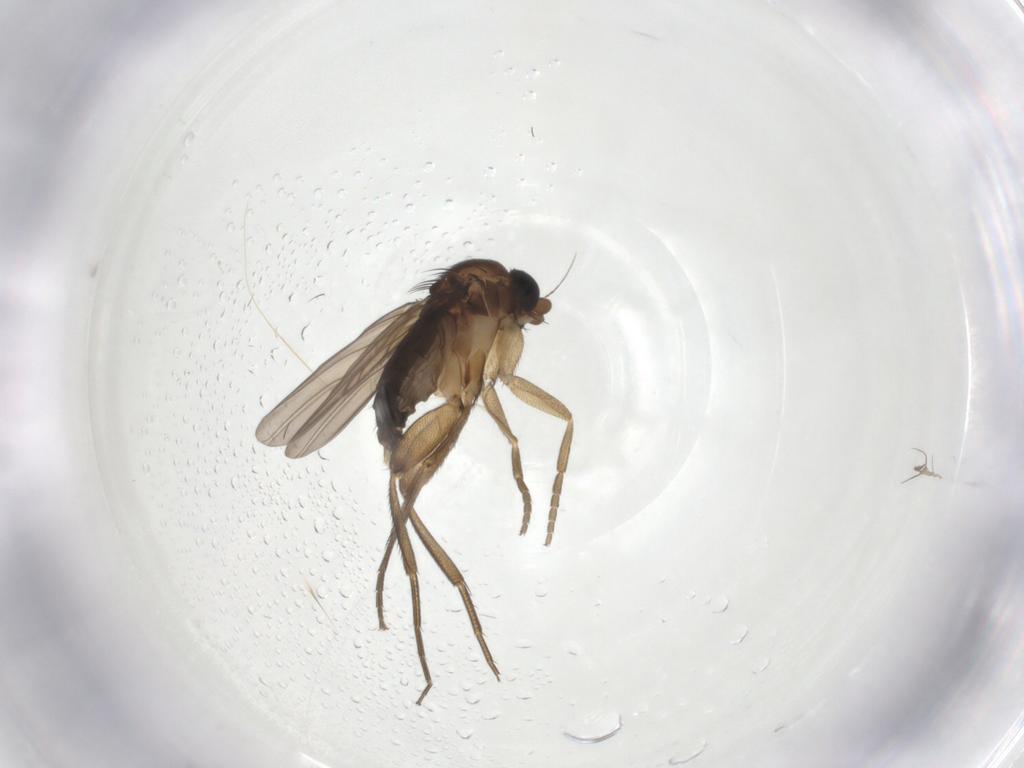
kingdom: Animalia
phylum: Arthropoda
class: Insecta
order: Diptera
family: Phoridae
